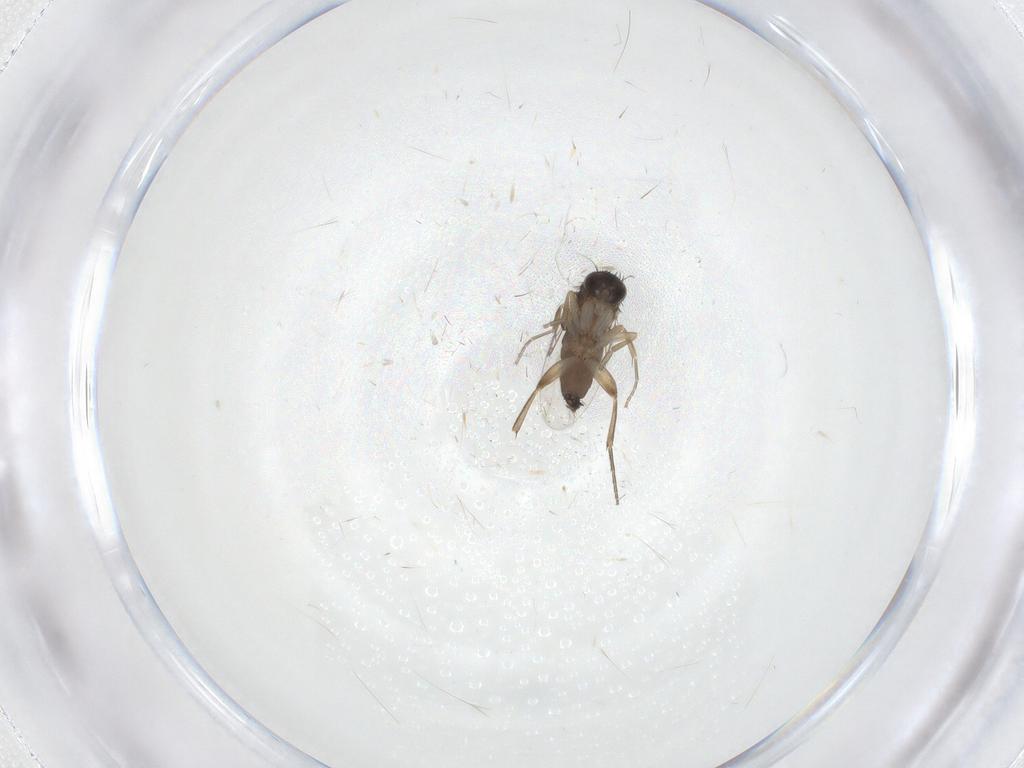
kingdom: Animalia
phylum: Arthropoda
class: Insecta
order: Diptera
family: Phoridae
